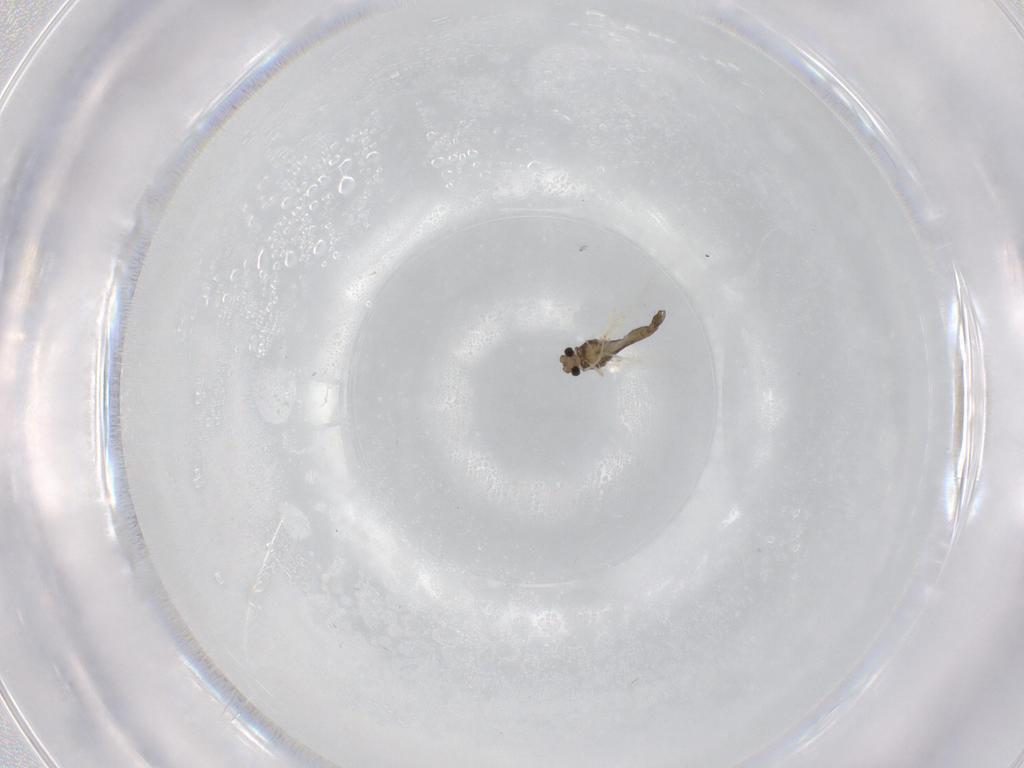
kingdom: Animalia
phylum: Arthropoda
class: Insecta
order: Diptera
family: Chironomidae
